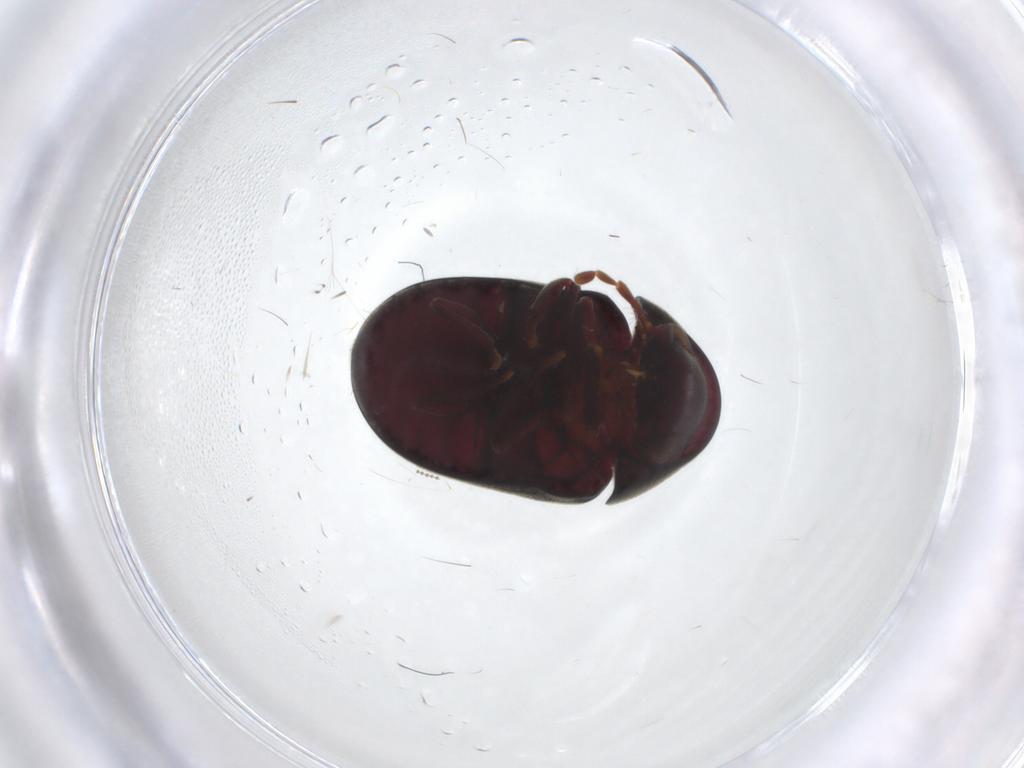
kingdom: Animalia
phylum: Arthropoda
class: Insecta
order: Coleoptera
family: Ptinidae
